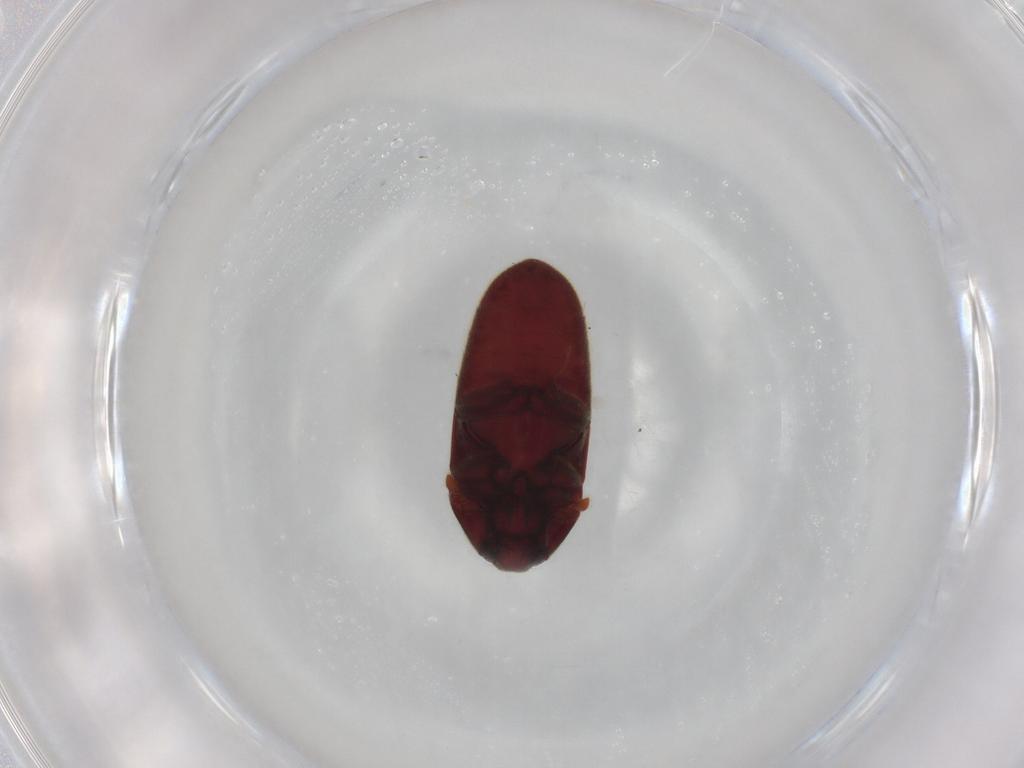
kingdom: Animalia
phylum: Arthropoda
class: Insecta
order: Coleoptera
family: Throscidae
